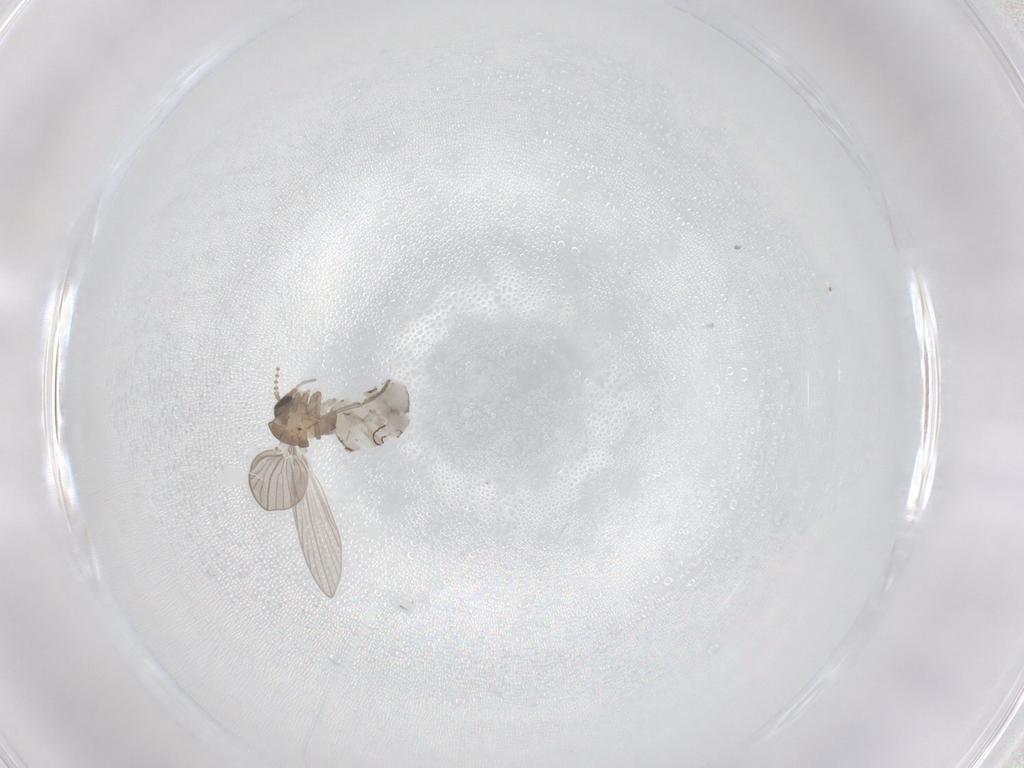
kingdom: Animalia
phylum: Arthropoda
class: Insecta
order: Diptera
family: Psychodidae
